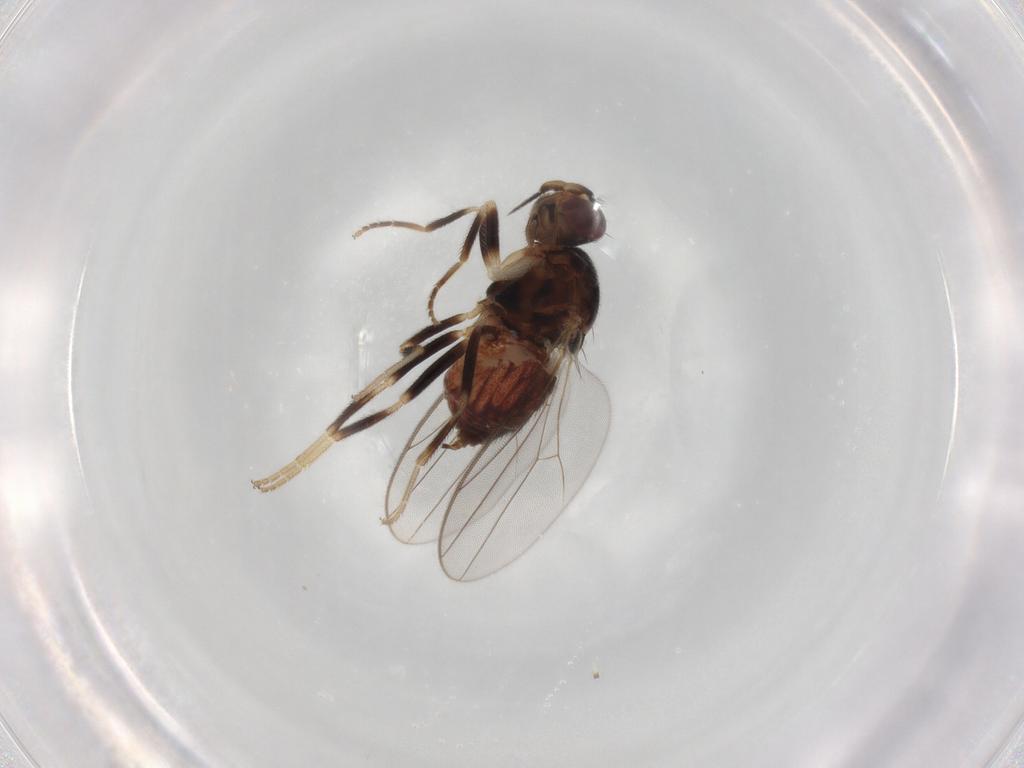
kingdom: Animalia
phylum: Arthropoda
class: Insecta
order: Diptera
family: Chloropidae
